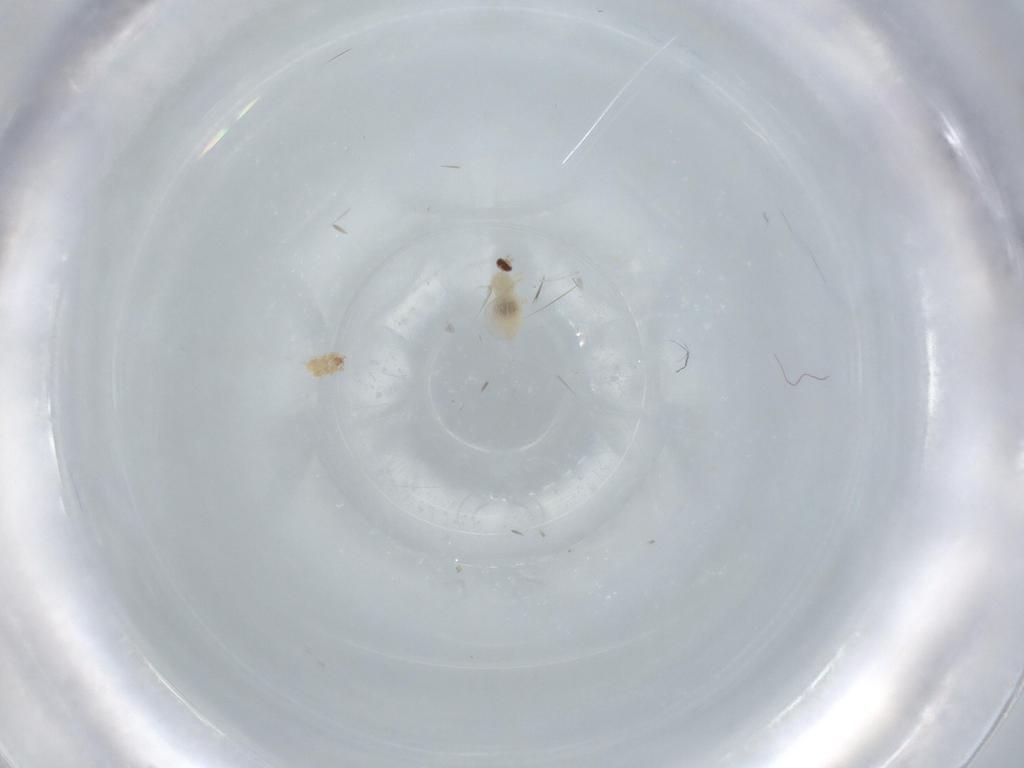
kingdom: Animalia
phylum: Arthropoda
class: Insecta
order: Diptera
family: Cecidomyiidae
